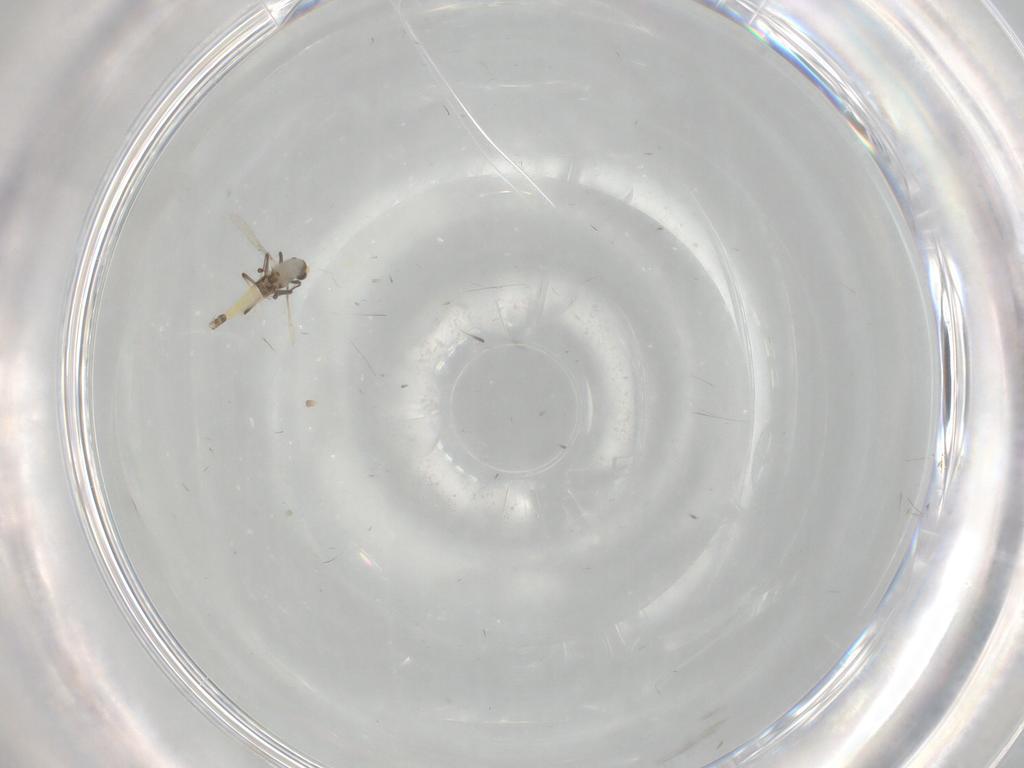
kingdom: Animalia
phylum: Arthropoda
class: Insecta
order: Diptera
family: Chironomidae
